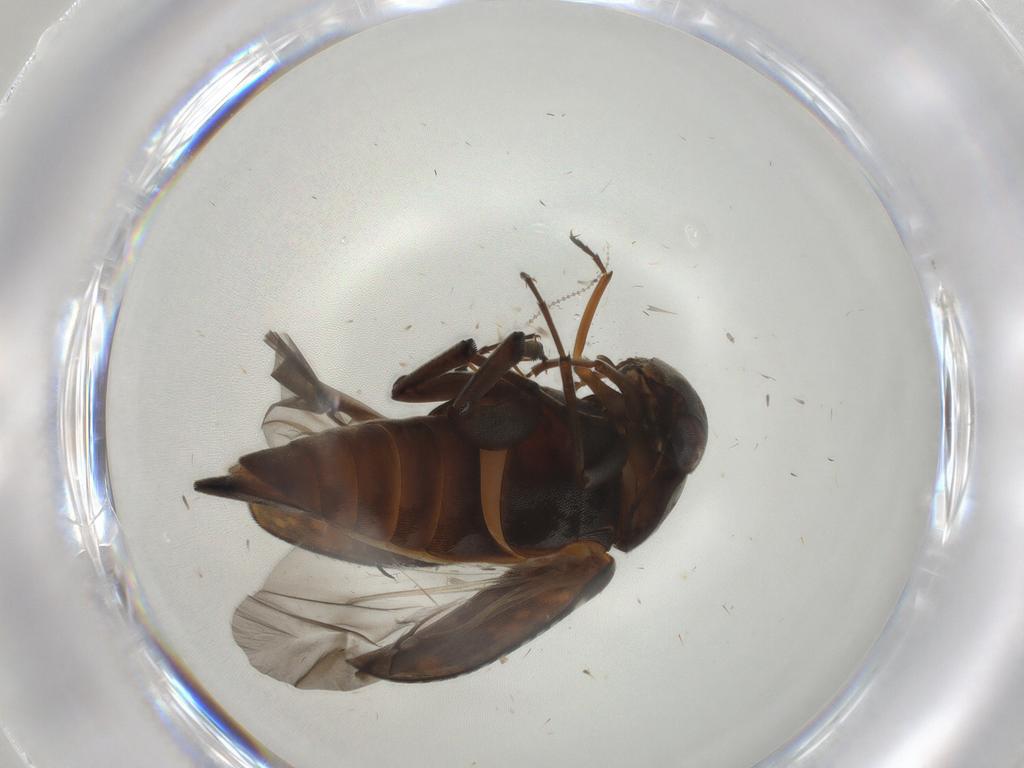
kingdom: Animalia
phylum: Arthropoda
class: Insecta
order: Coleoptera
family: Mordellidae
